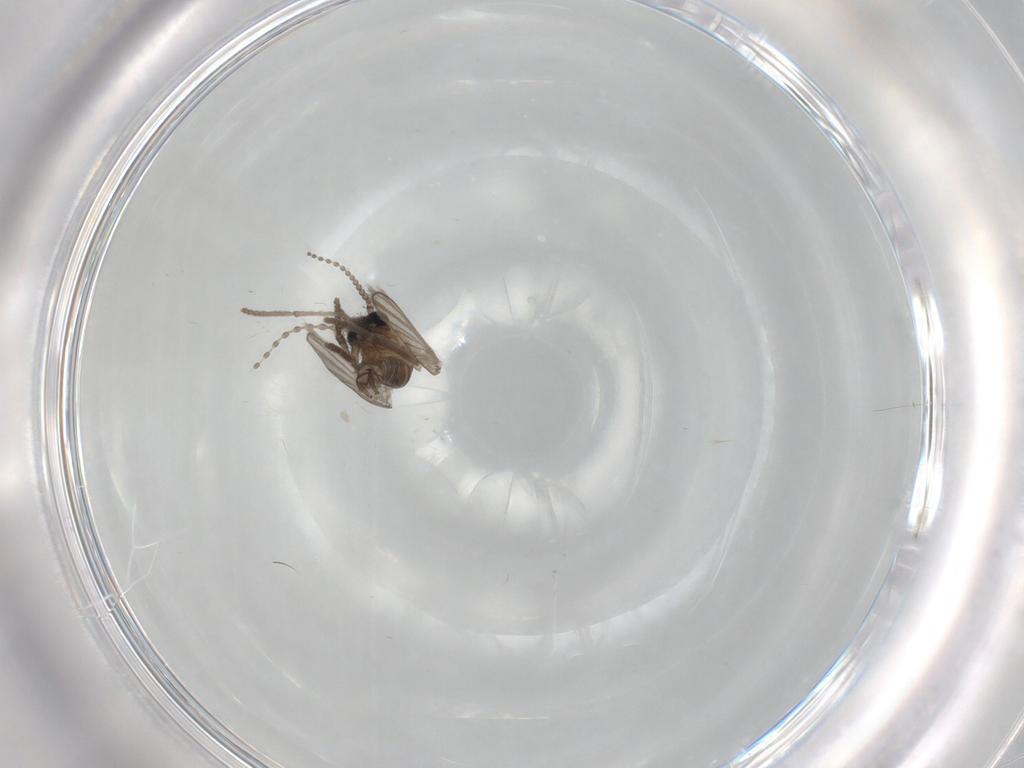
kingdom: Animalia
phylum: Arthropoda
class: Insecta
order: Diptera
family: Psychodidae
